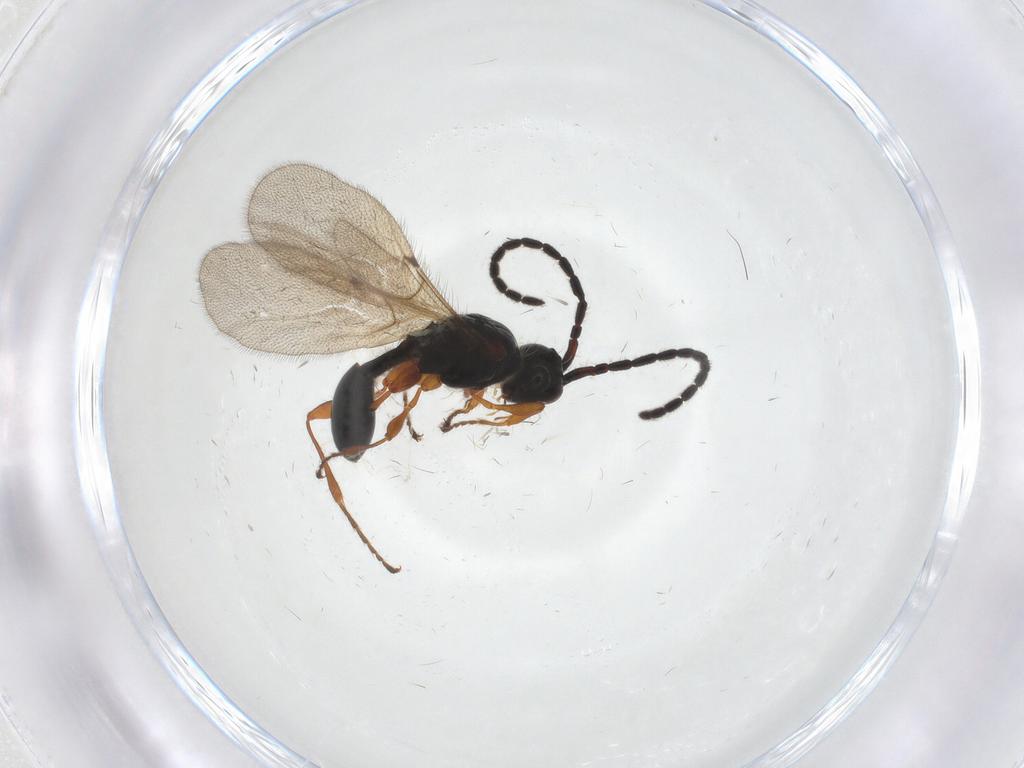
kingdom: Animalia
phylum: Arthropoda
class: Insecta
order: Hymenoptera
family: Diapriidae
